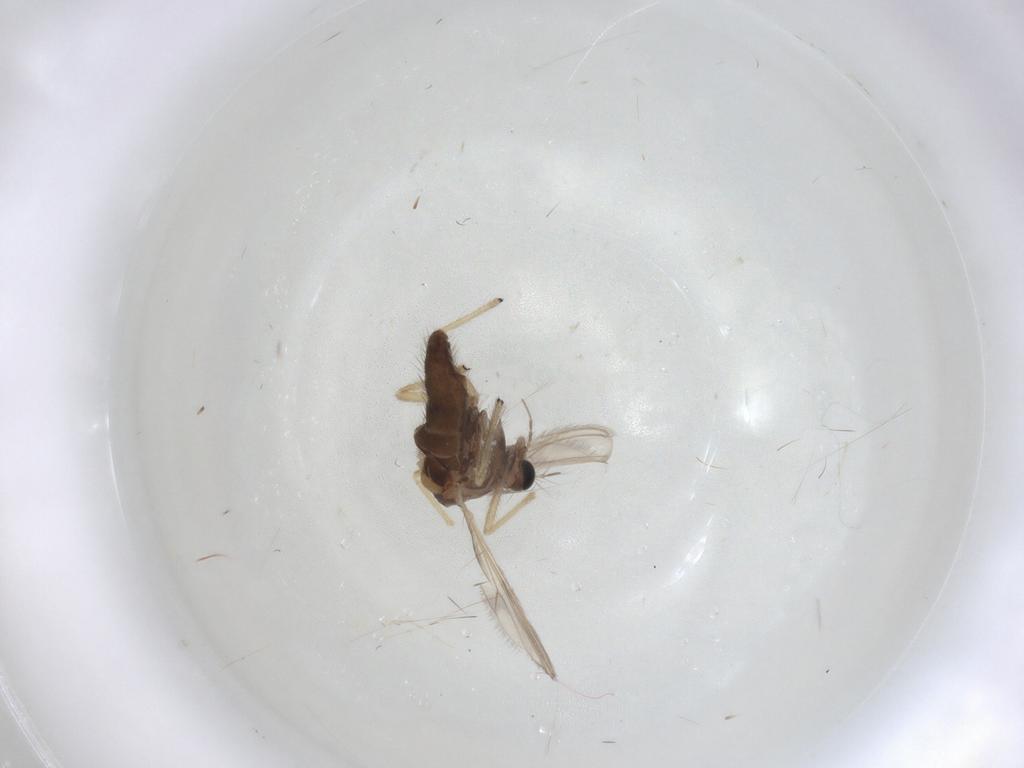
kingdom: Animalia
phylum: Arthropoda
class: Insecta
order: Diptera
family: Chironomidae
